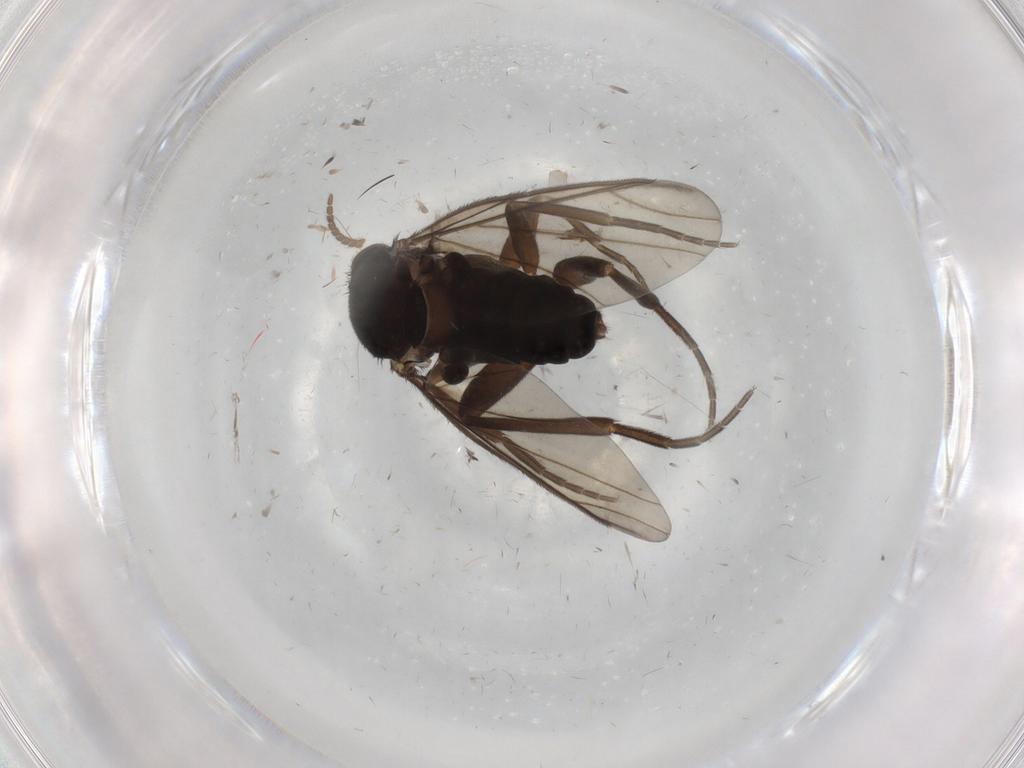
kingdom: Animalia
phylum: Arthropoda
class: Insecta
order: Diptera
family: Phoridae
